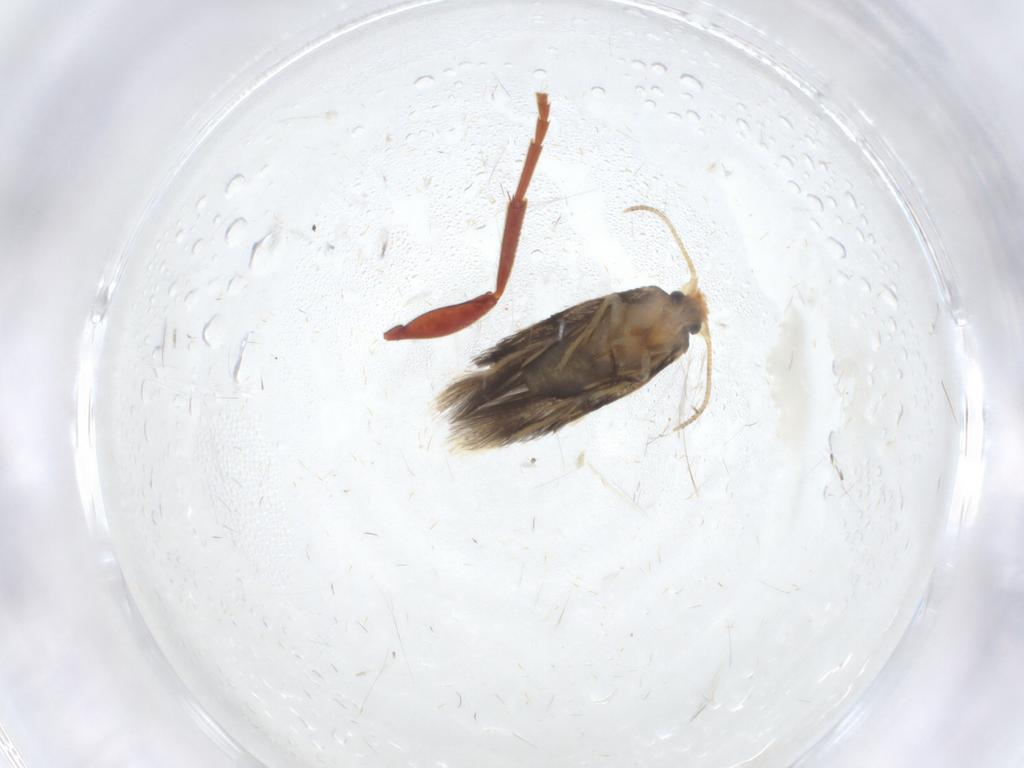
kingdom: Animalia
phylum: Arthropoda
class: Insecta
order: Lepidoptera
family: Nepticulidae
